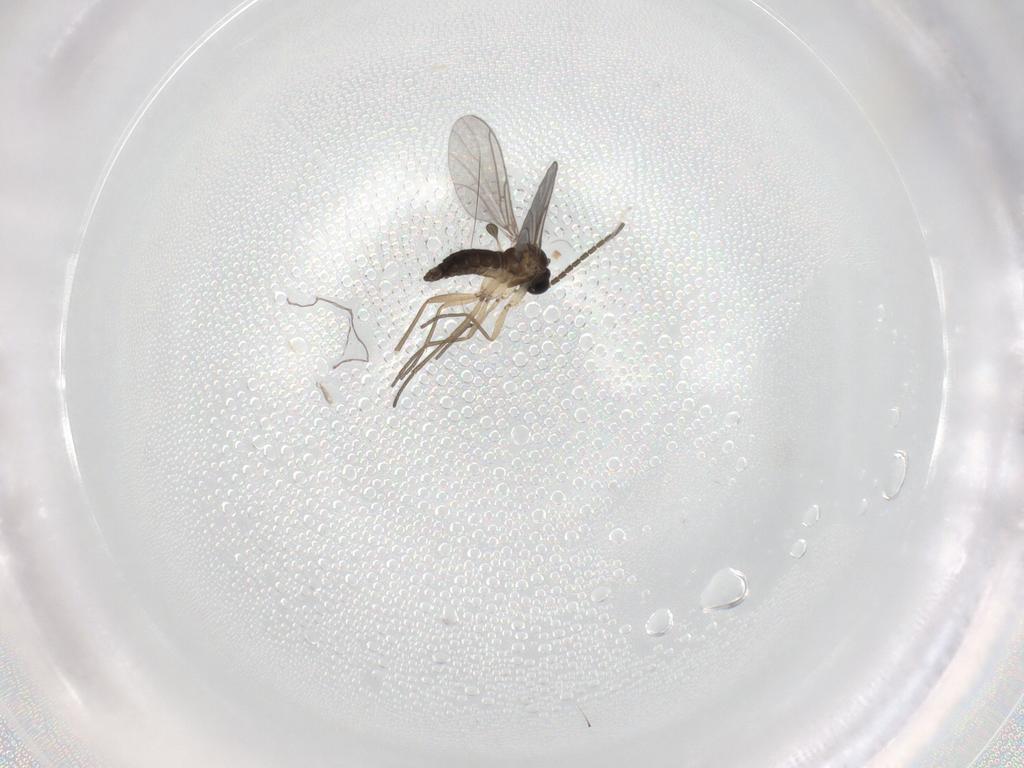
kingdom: Animalia
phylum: Arthropoda
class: Insecta
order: Diptera
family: Sciaridae
